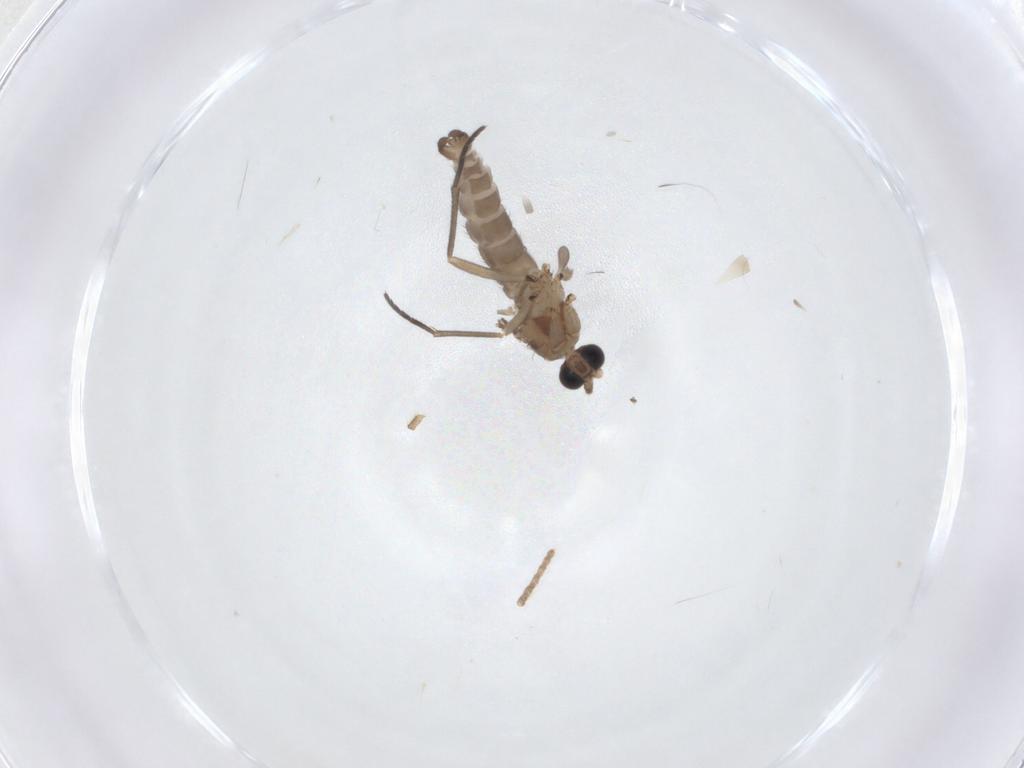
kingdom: Animalia
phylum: Arthropoda
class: Insecta
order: Diptera
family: Sciaridae
